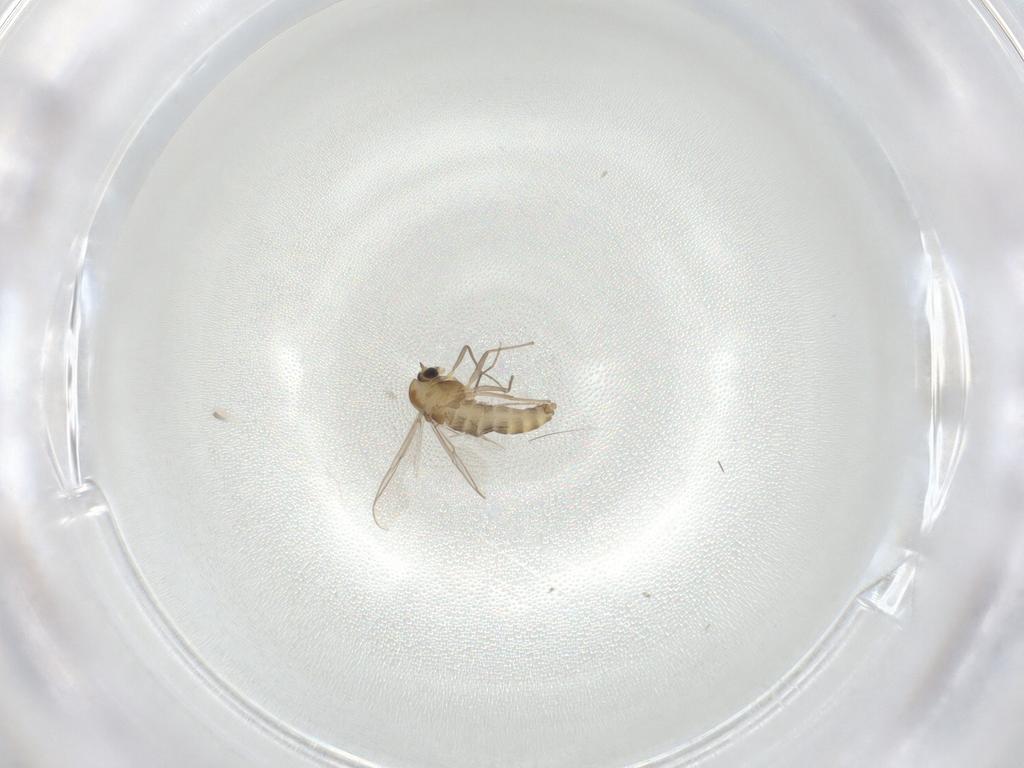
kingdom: Animalia
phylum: Arthropoda
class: Insecta
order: Diptera
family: Chironomidae
